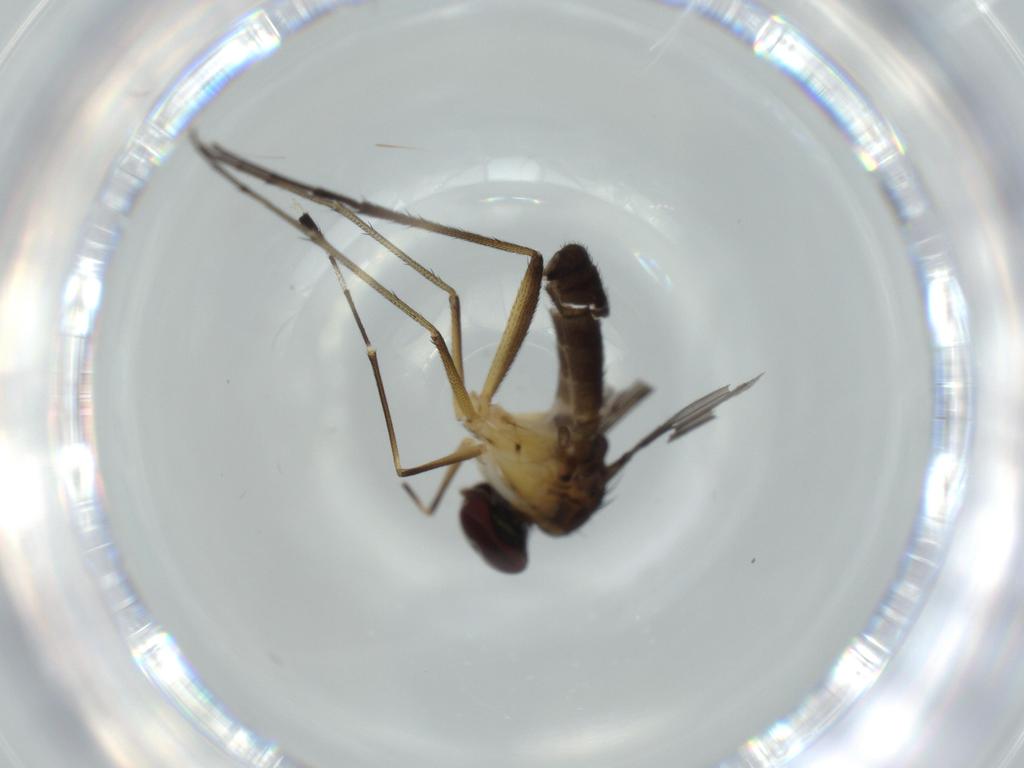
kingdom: Animalia
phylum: Arthropoda
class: Insecta
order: Diptera
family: Dolichopodidae
